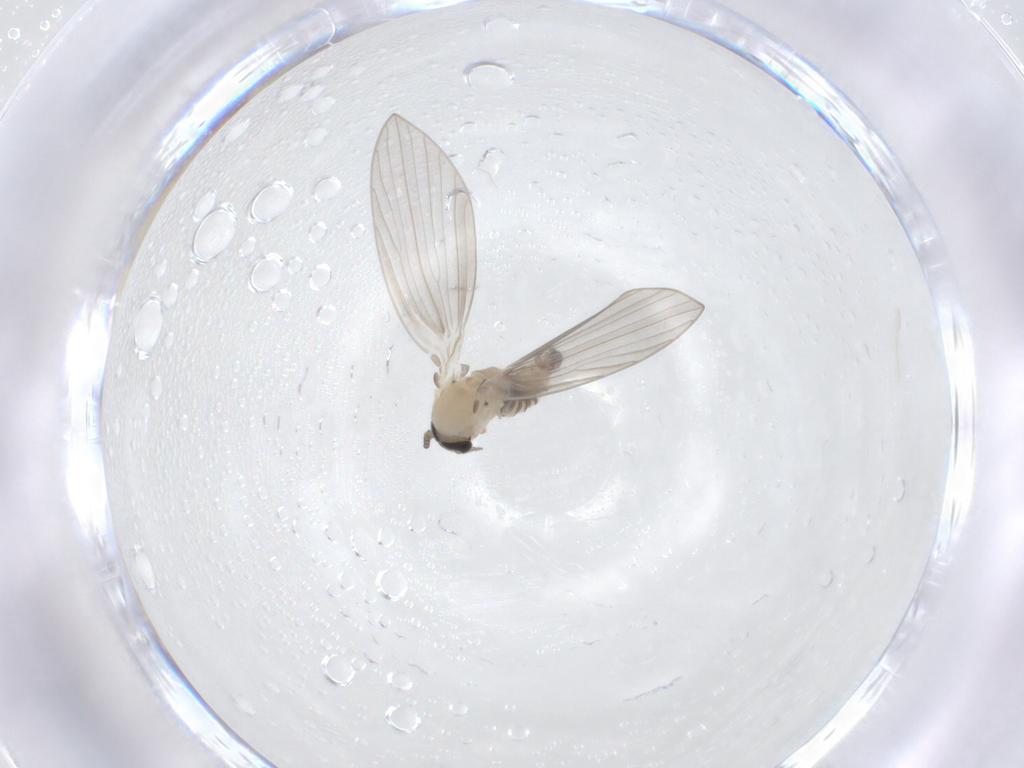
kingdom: Animalia
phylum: Arthropoda
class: Insecta
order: Diptera
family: Psychodidae
